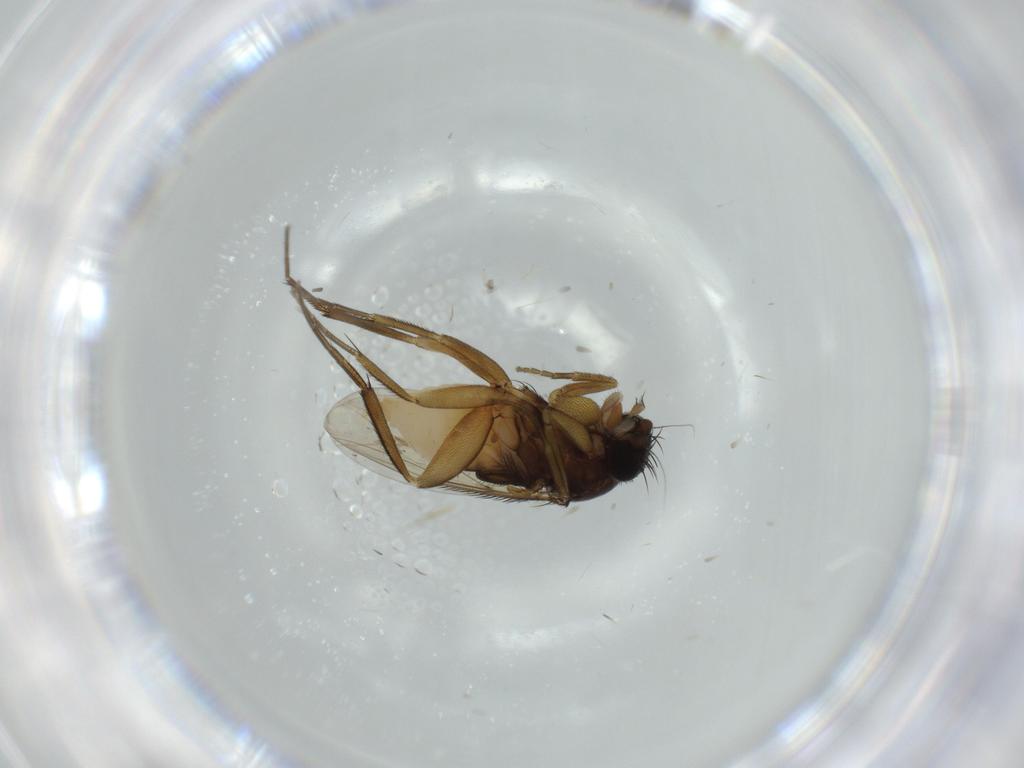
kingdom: Animalia
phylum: Arthropoda
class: Insecta
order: Diptera
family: Phoridae
